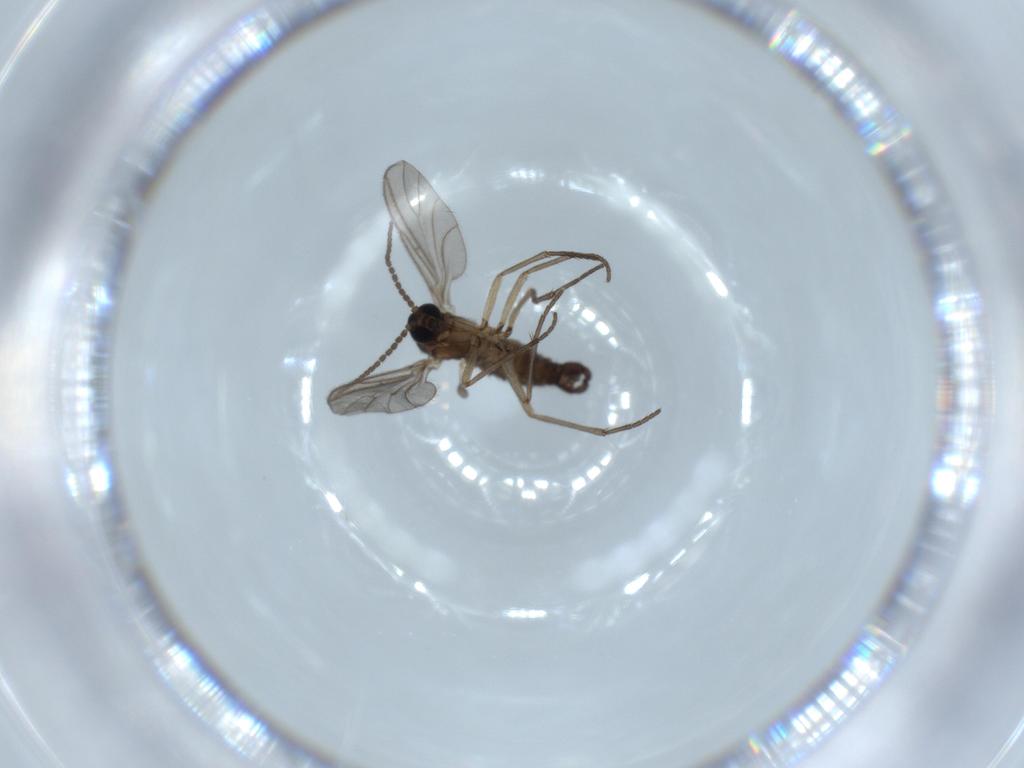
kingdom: Animalia
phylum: Arthropoda
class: Insecta
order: Diptera
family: Sciaridae
